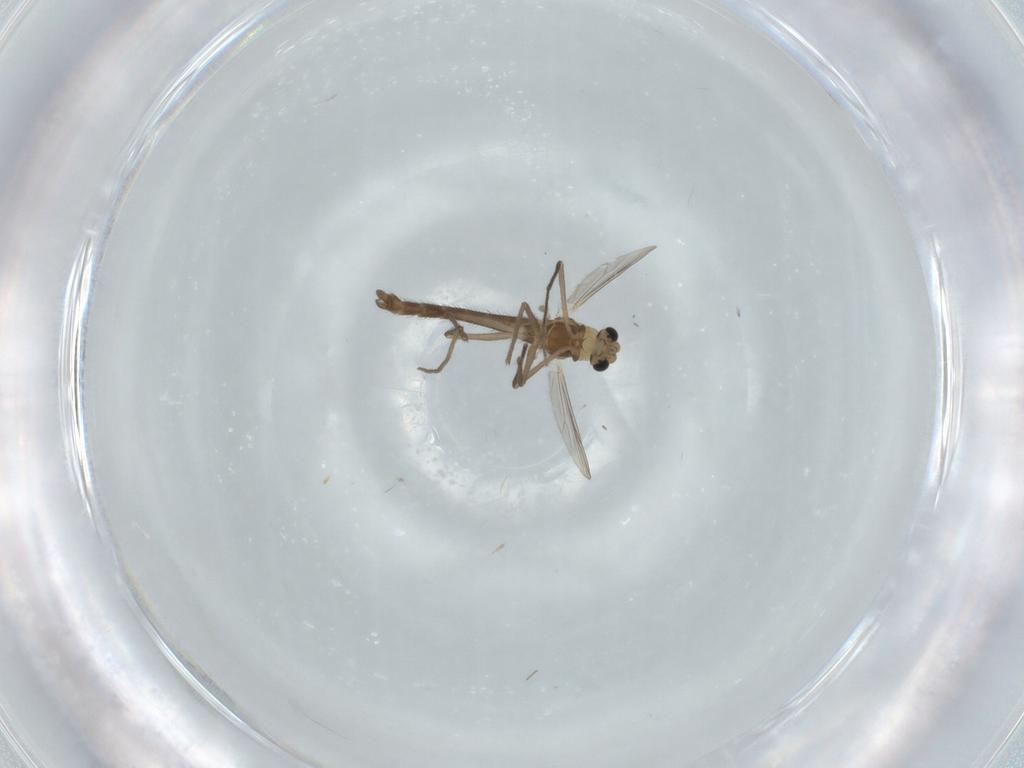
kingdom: Animalia
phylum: Arthropoda
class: Insecta
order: Diptera
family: Chironomidae
